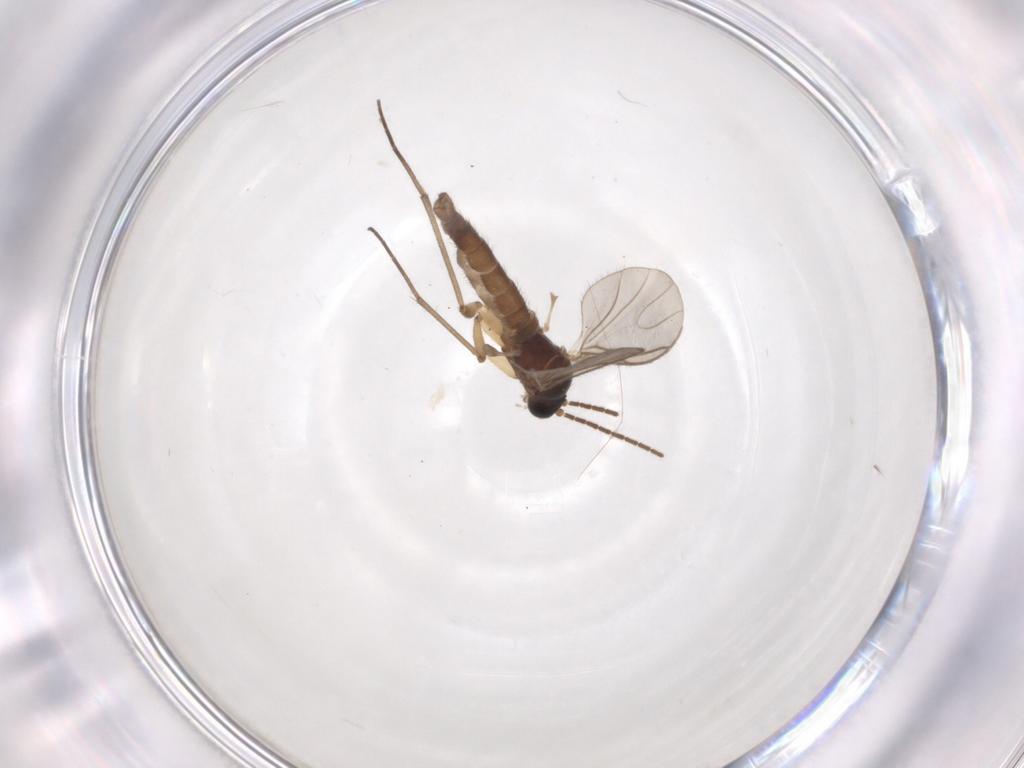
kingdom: Animalia
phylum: Arthropoda
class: Insecta
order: Diptera
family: Sciaridae
